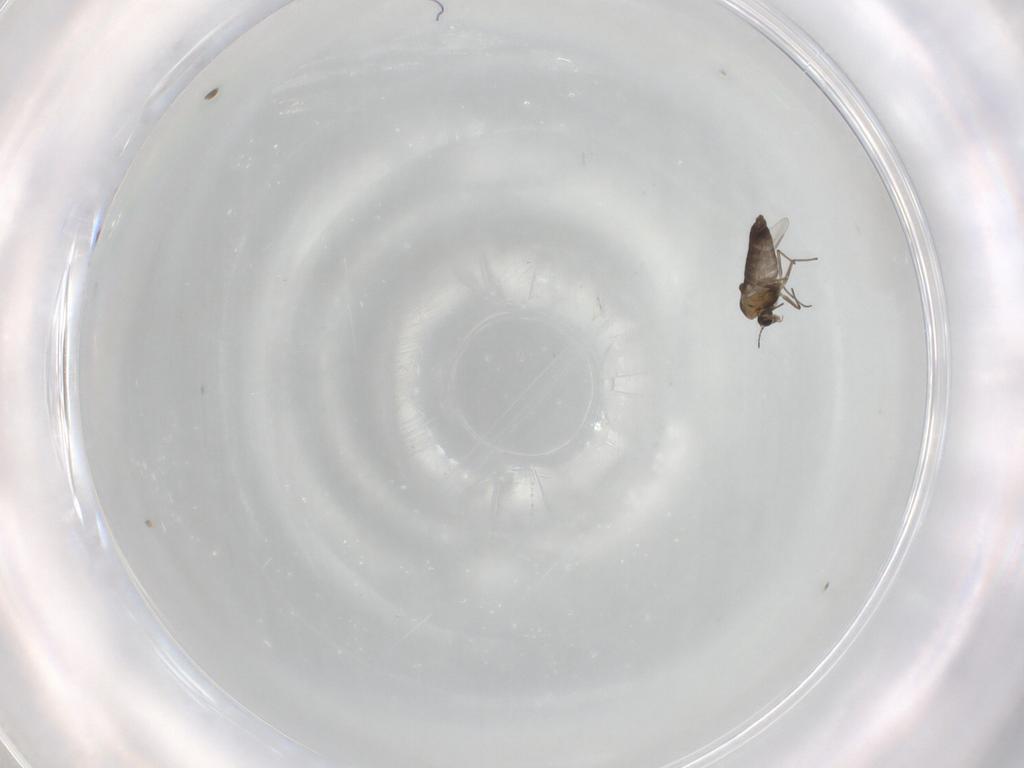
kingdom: Animalia
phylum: Arthropoda
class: Insecta
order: Diptera
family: Chironomidae
